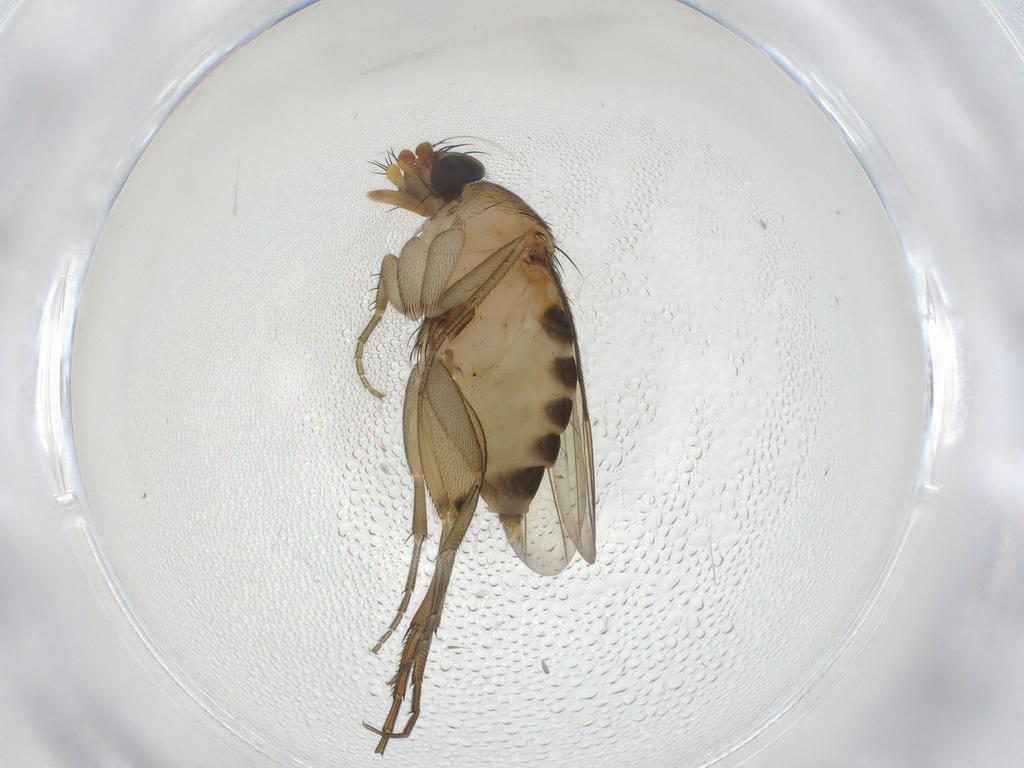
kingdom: Animalia
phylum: Arthropoda
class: Insecta
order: Diptera
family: Phoridae
